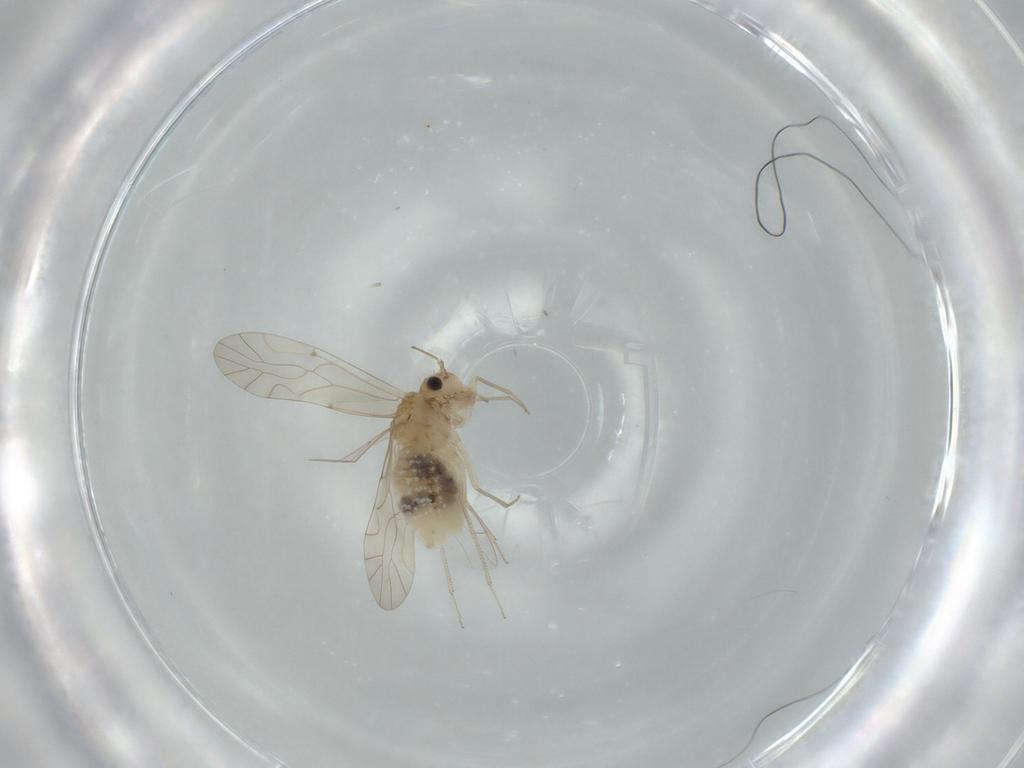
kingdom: Animalia
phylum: Arthropoda
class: Insecta
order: Psocodea
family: Lachesillidae
